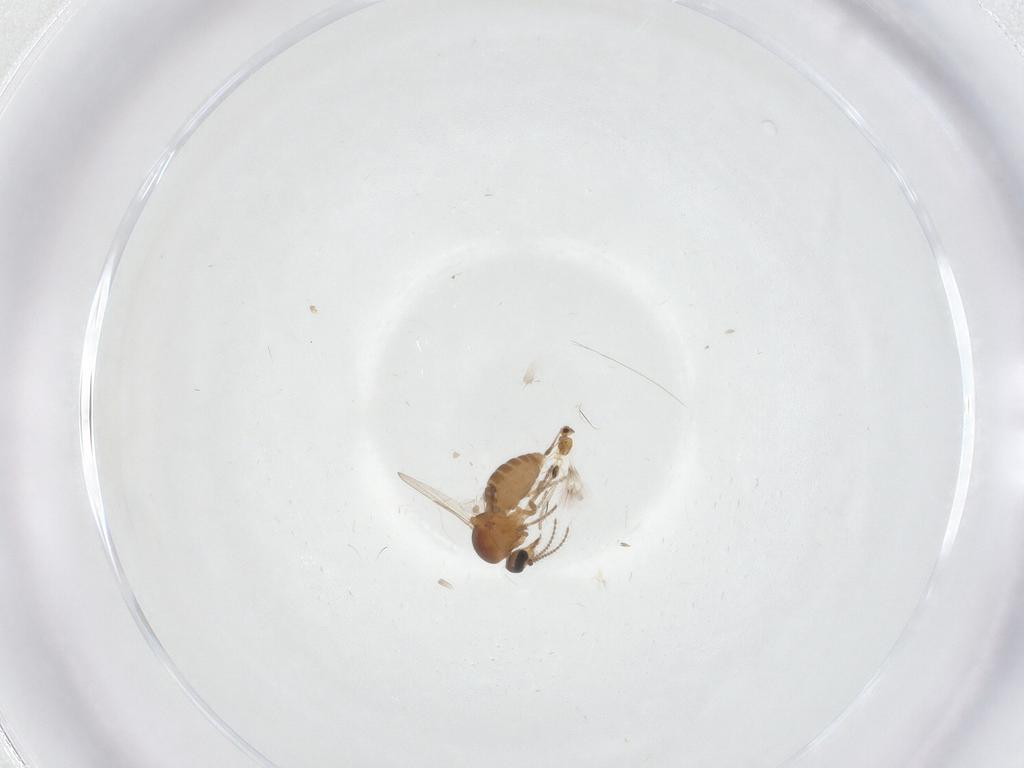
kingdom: Animalia
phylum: Arthropoda
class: Insecta
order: Diptera
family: Ceratopogonidae
